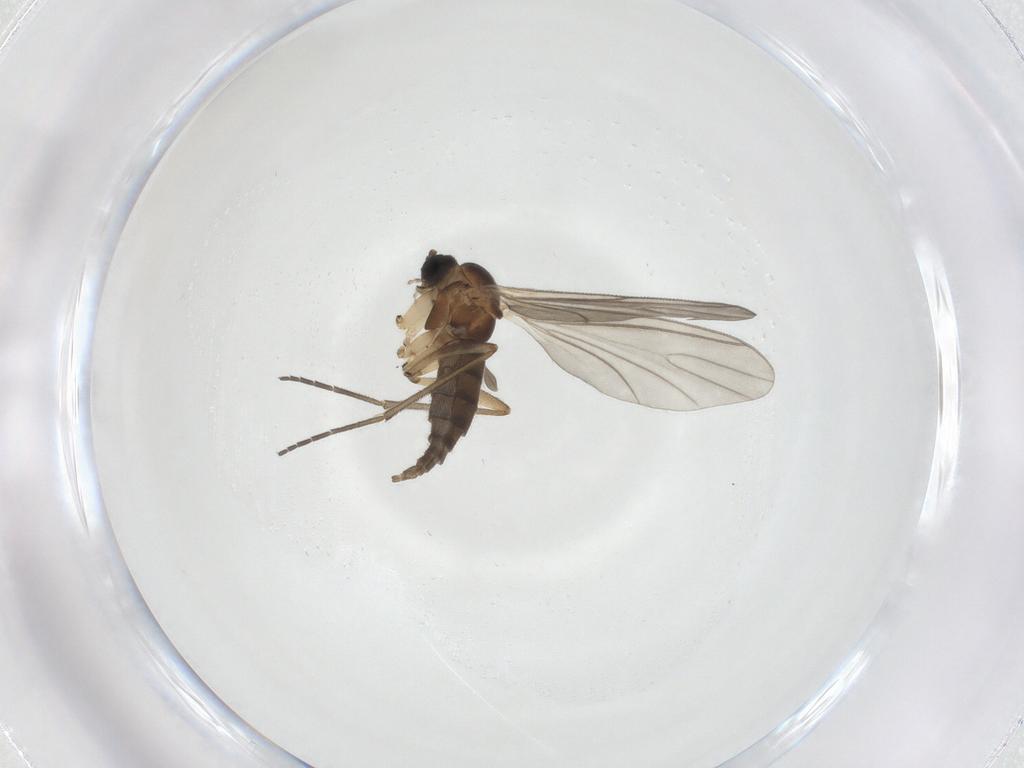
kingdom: Animalia
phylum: Arthropoda
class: Insecta
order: Diptera
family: Sciaridae
